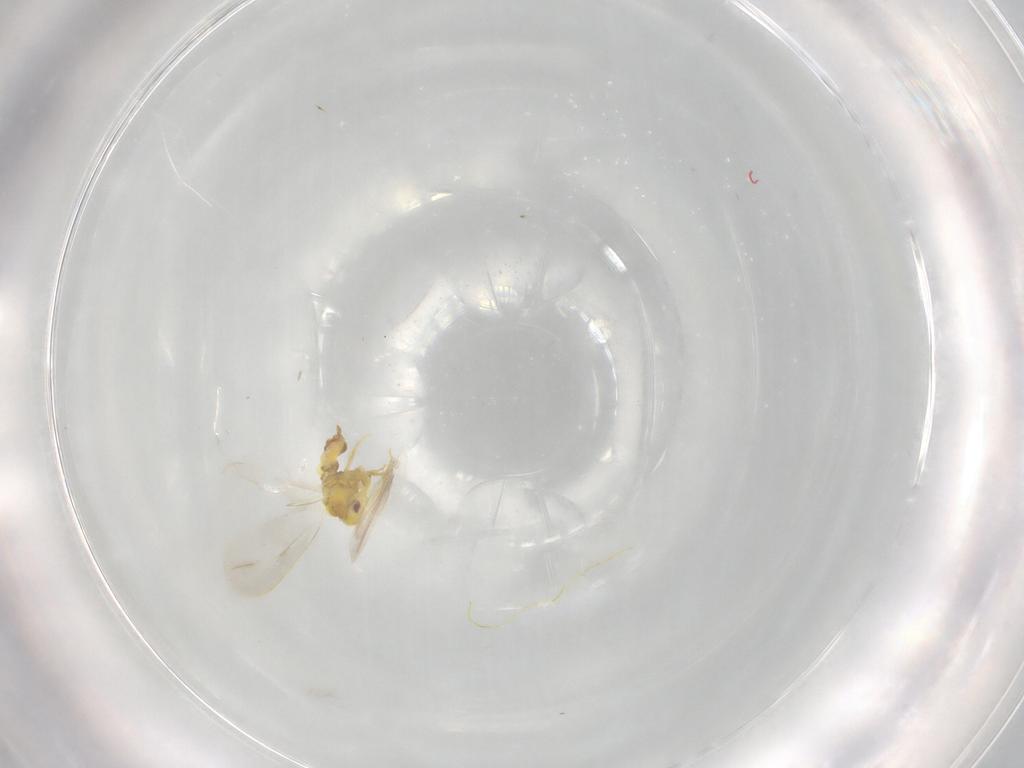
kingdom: Animalia
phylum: Arthropoda
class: Insecta
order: Hemiptera
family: Aleyrodidae
